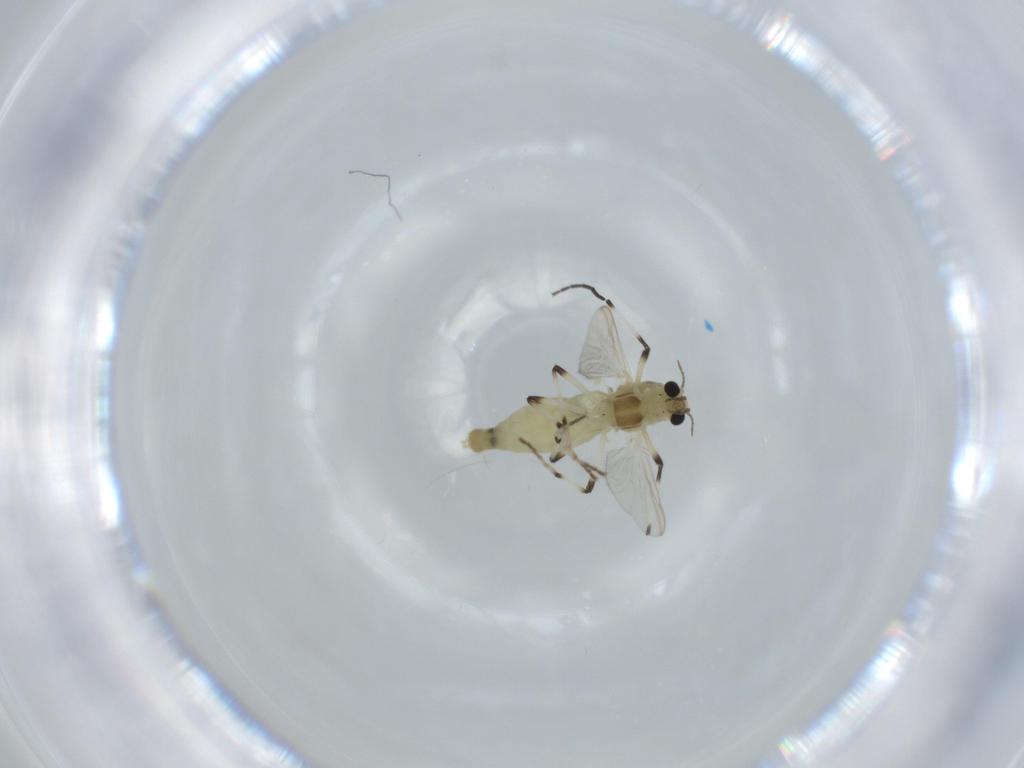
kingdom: Animalia
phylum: Arthropoda
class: Insecta
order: Diptera
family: Chironomidae
